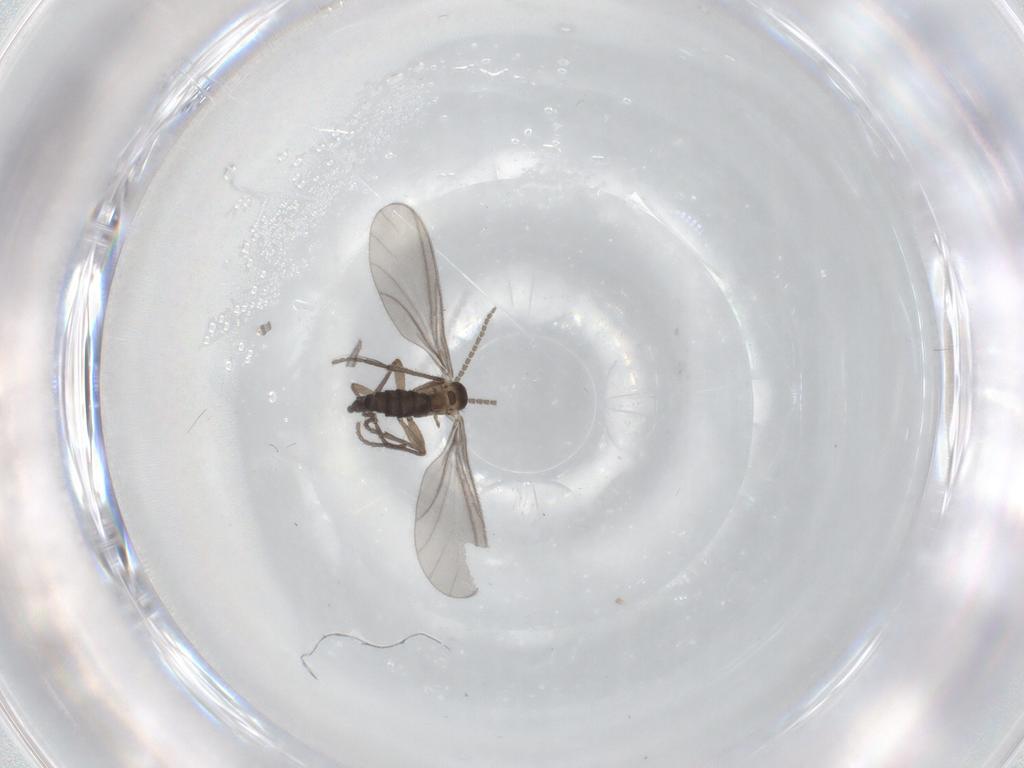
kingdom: Animalia
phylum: Arthropoda
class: Insecta
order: Diptera
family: Sciaridae
